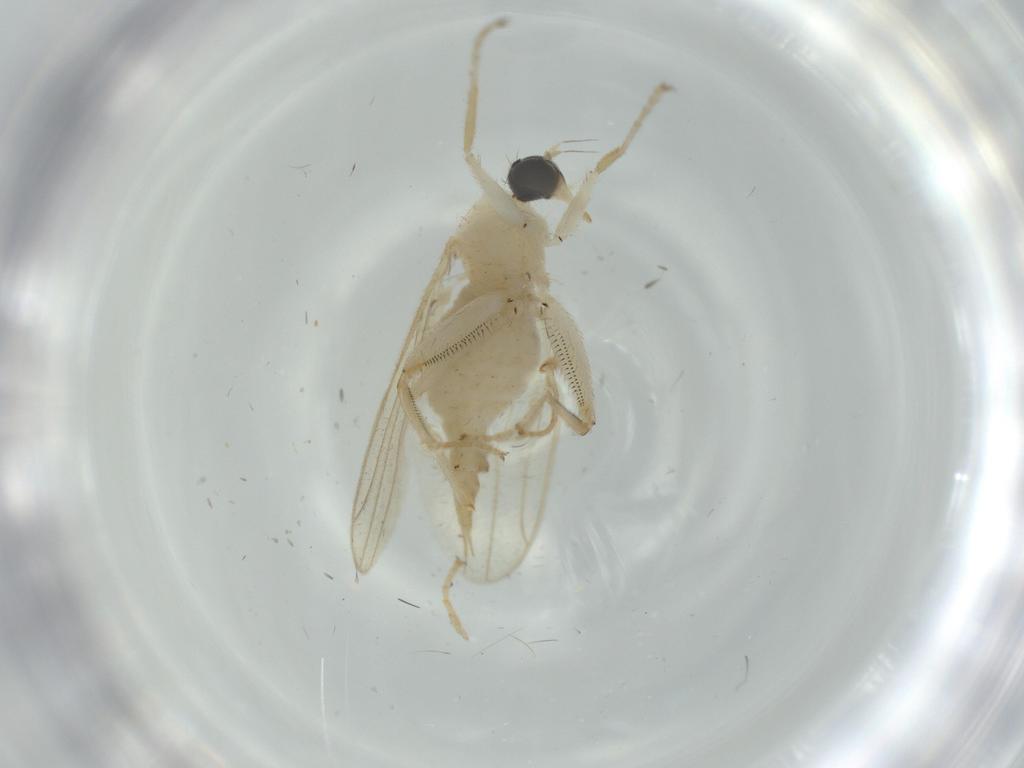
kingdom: Animalia
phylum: Arthropoda
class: Insecta
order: Diptera
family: Hybotidae
